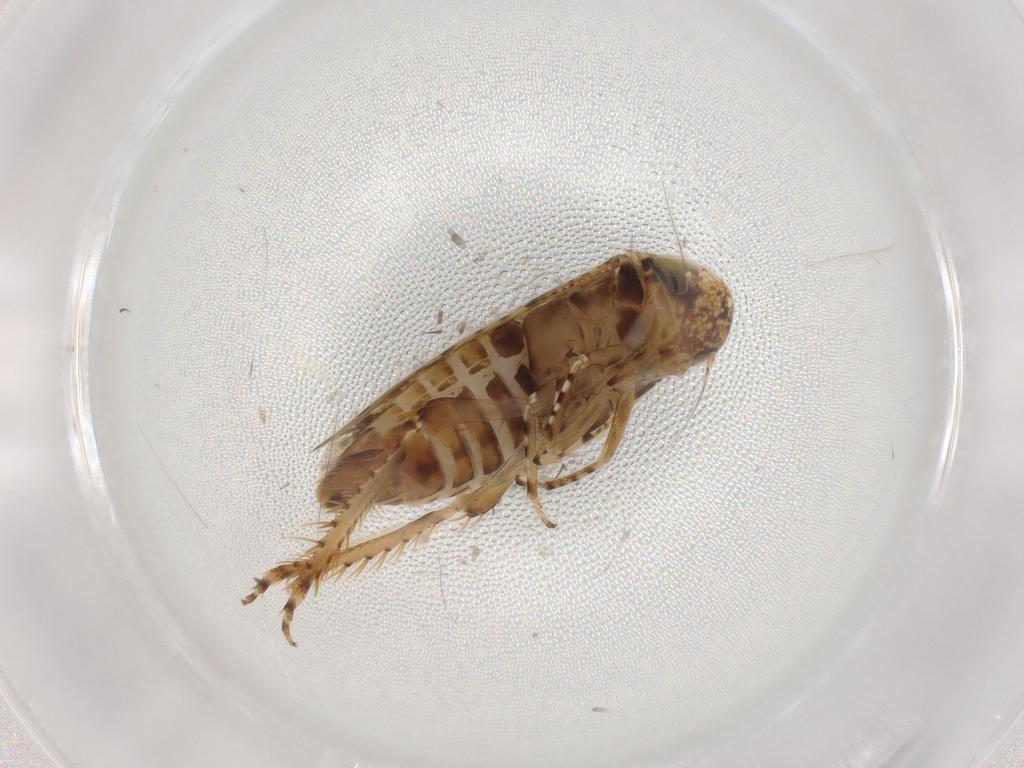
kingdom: Animalia
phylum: Arthropoda
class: Insecta
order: Hemiptera
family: Cicadellidae
